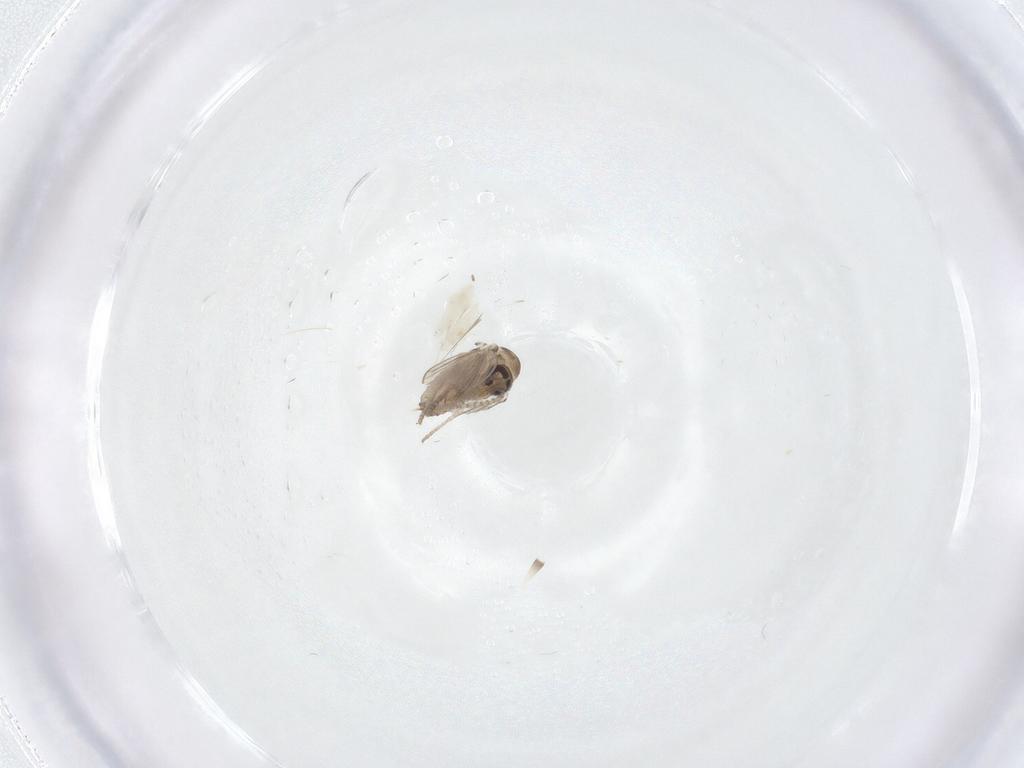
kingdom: Animalia
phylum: Arthropoda
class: Insecta
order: Diptera
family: Psychodidae
